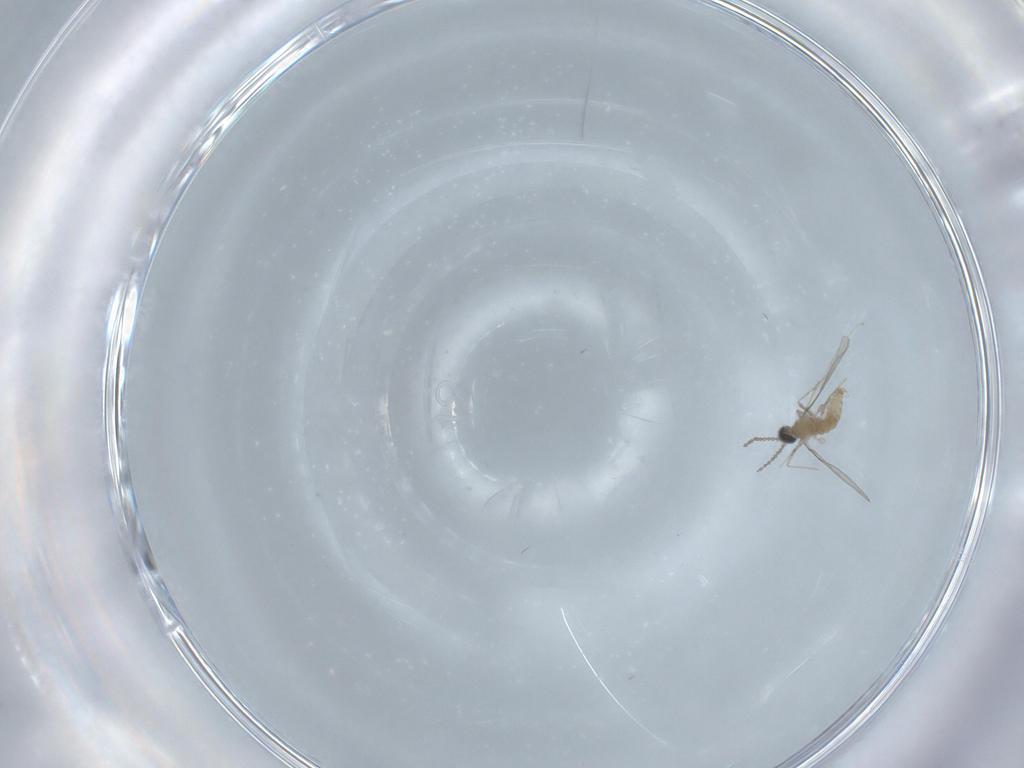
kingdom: Animalia
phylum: Arthropoda
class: Insecta
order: Diptera
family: Cecidomyiidae
